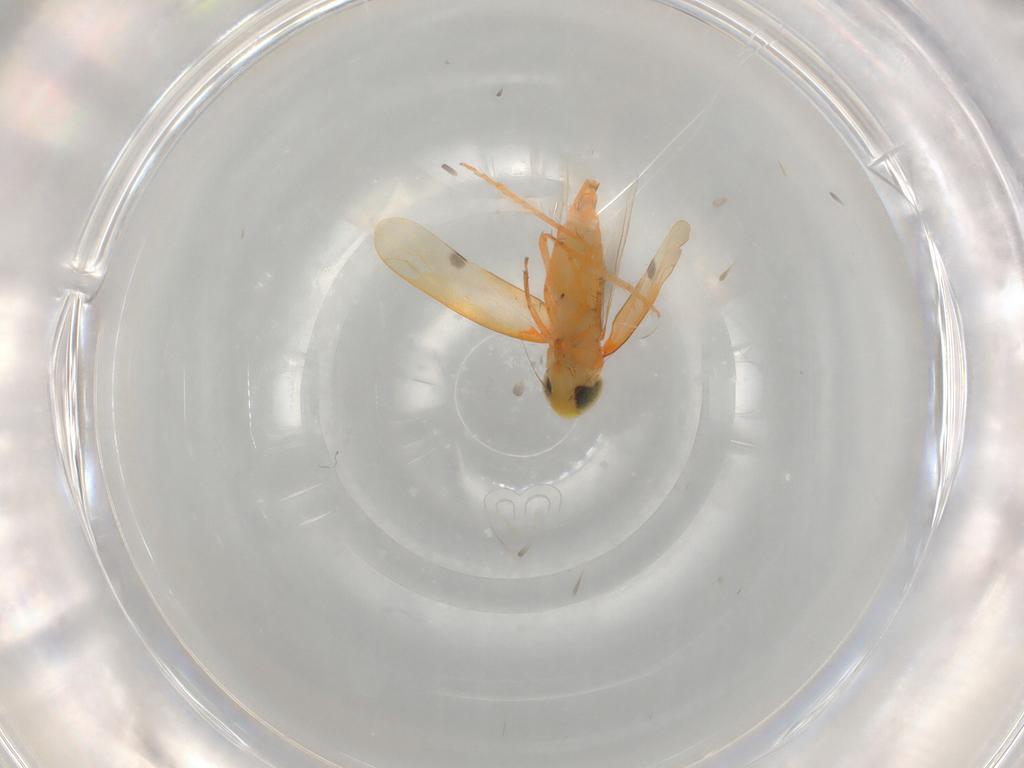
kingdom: Animalia
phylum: Arthropoda
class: Insecta
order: Hemiptera
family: Cicadellidae
